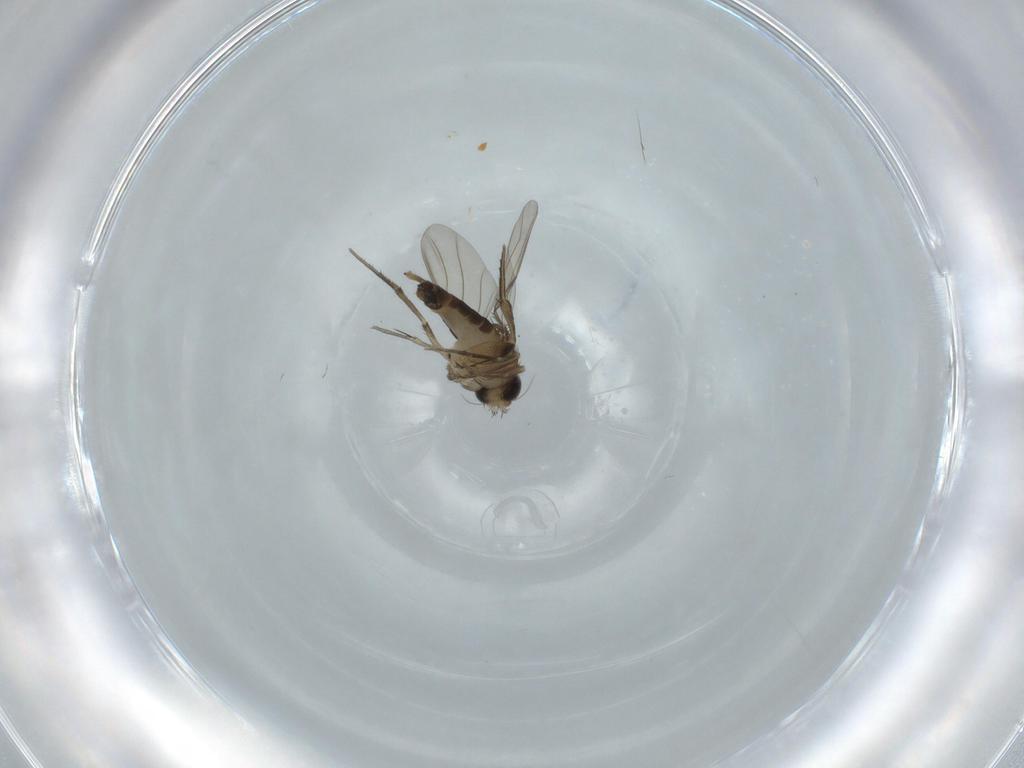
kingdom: Animalia
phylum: Arthropoda
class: Insecta
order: Diptera
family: Phoridae
